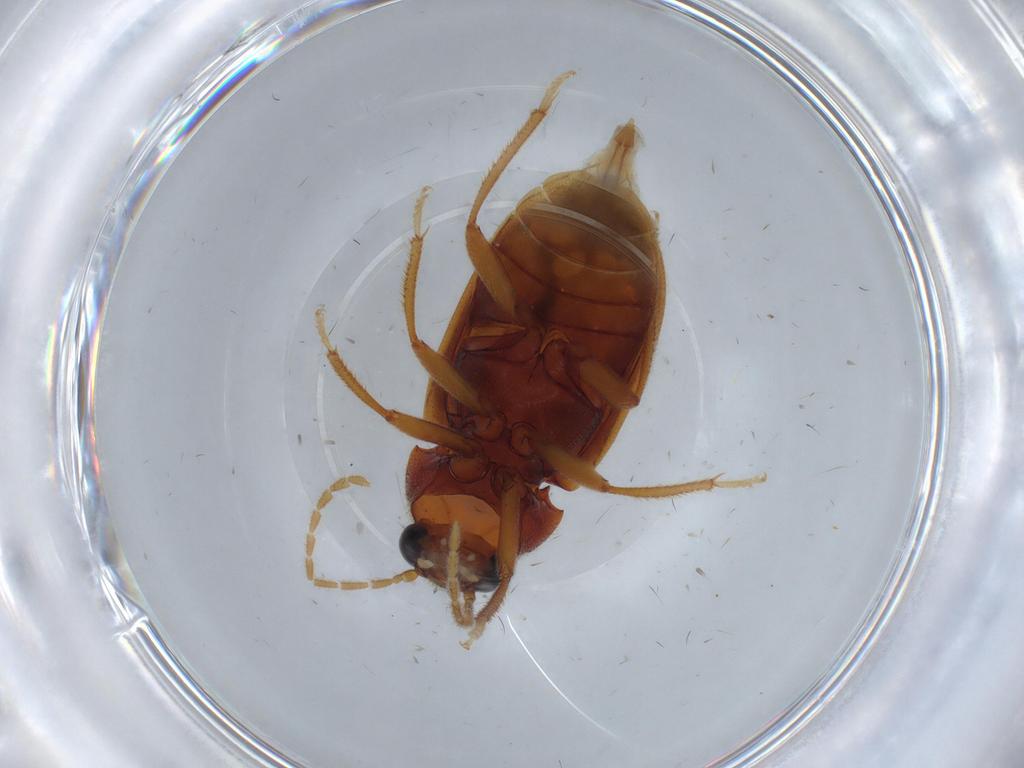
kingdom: Animalia
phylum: Arthropoda
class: Insecta
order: Coleoptera
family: Ptilodactylidae
